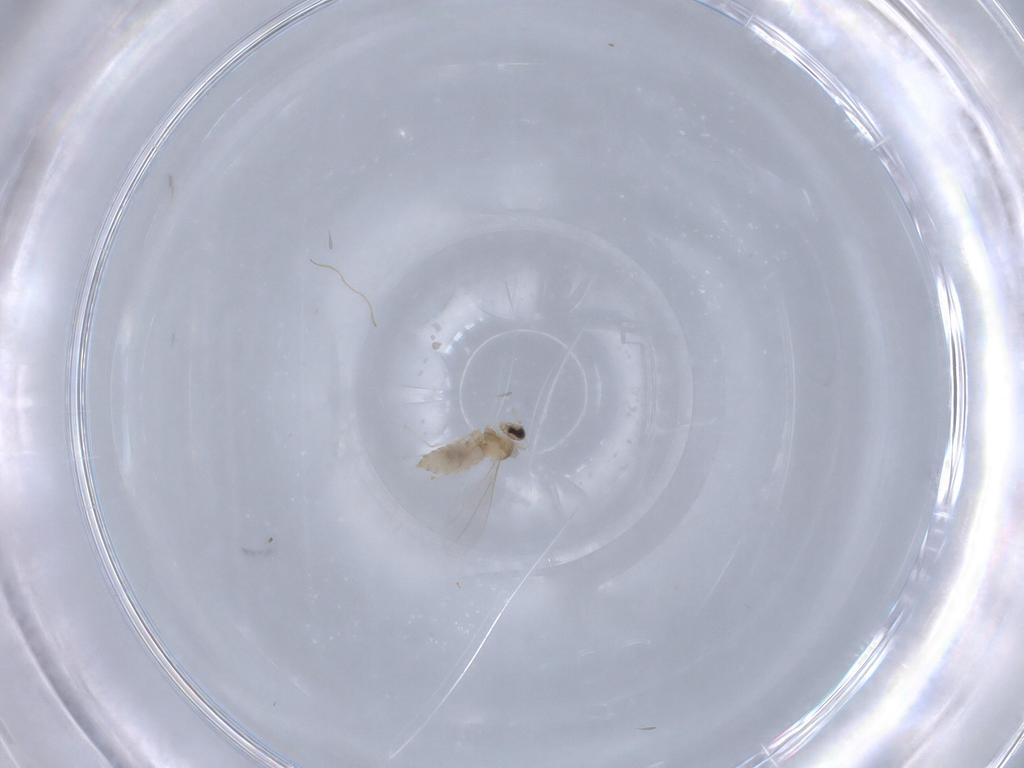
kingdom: Animalia
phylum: Arthropoda
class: Insecta
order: Diptera
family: Cecidomyiidae
